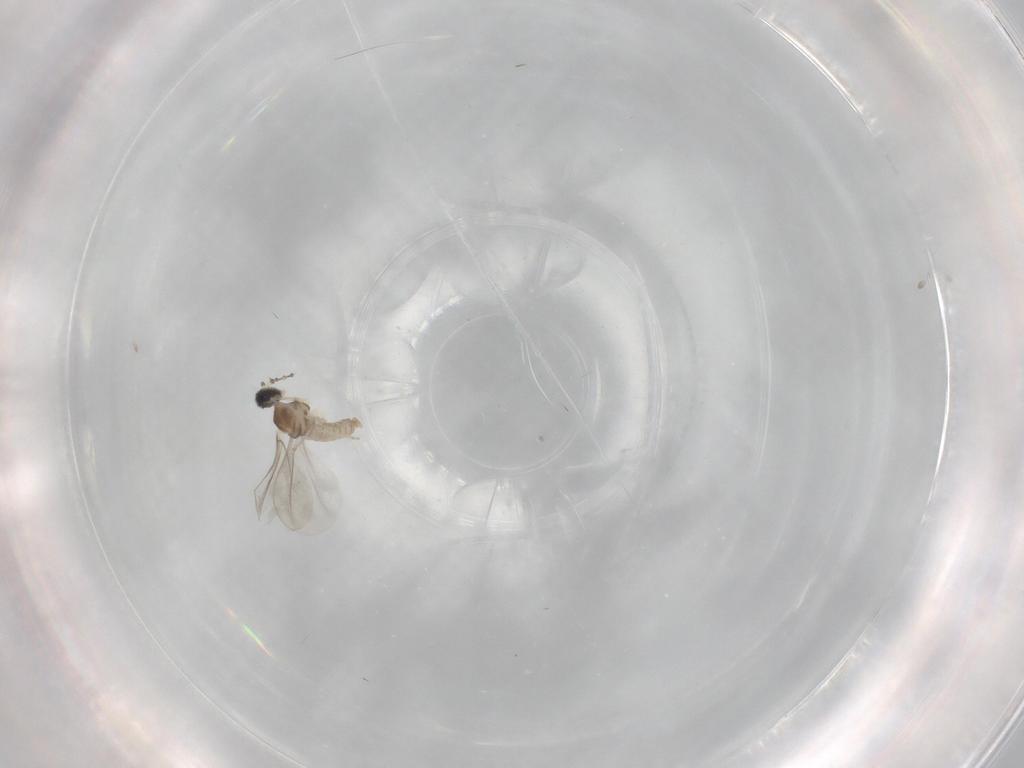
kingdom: Animalia
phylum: Arthropoda
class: Insecta
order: Diptera
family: Cecidomyiidae
